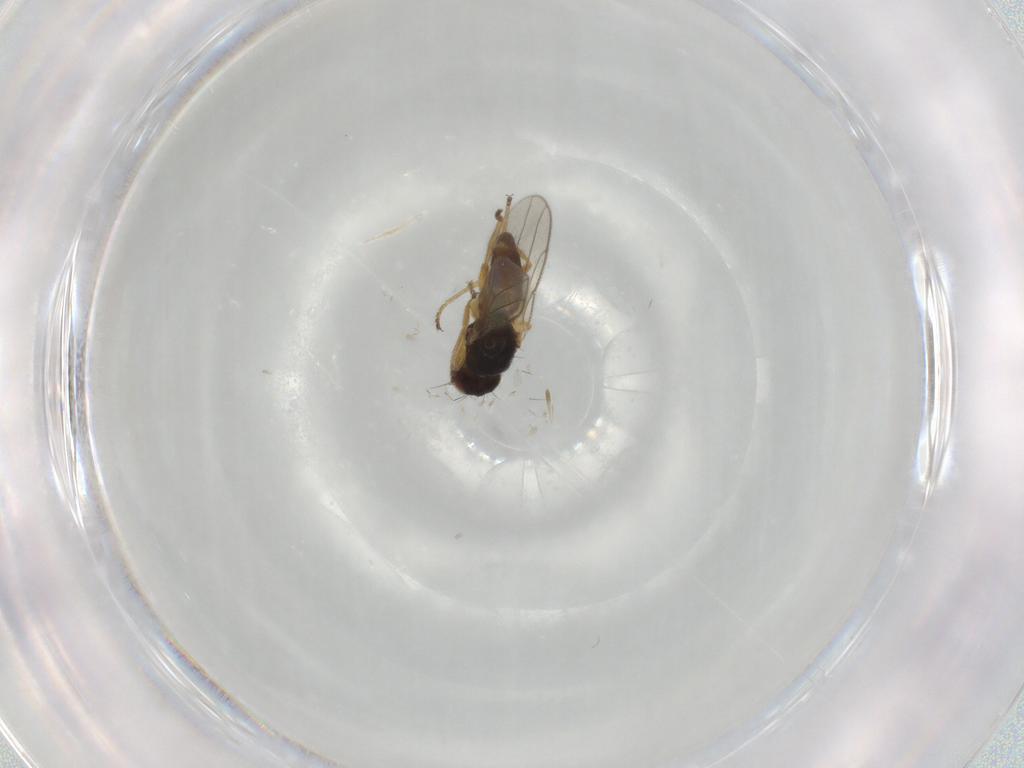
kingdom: Animalia
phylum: Arthropoda
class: Insecta
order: Diptera
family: Chloropidae
